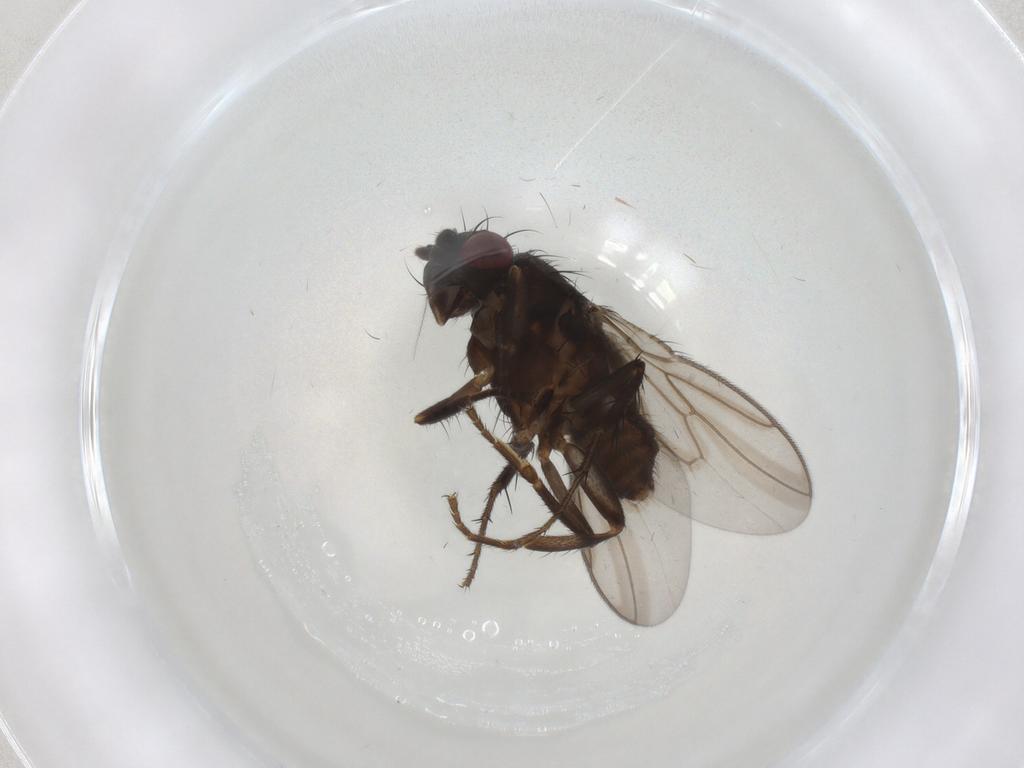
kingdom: Animalia
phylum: Arthropoda
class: Insecta
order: Diptera
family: Sphaeroceridae
